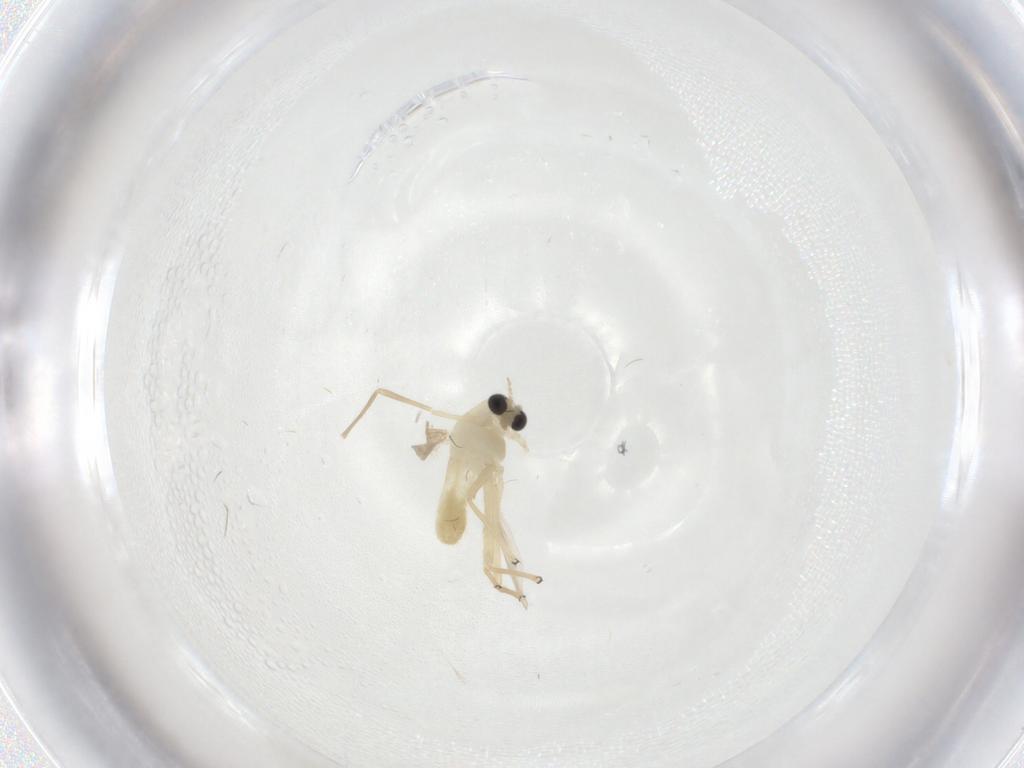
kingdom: Animalia
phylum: Arthropoda
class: Insecta
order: Diptera
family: Chironomidae
